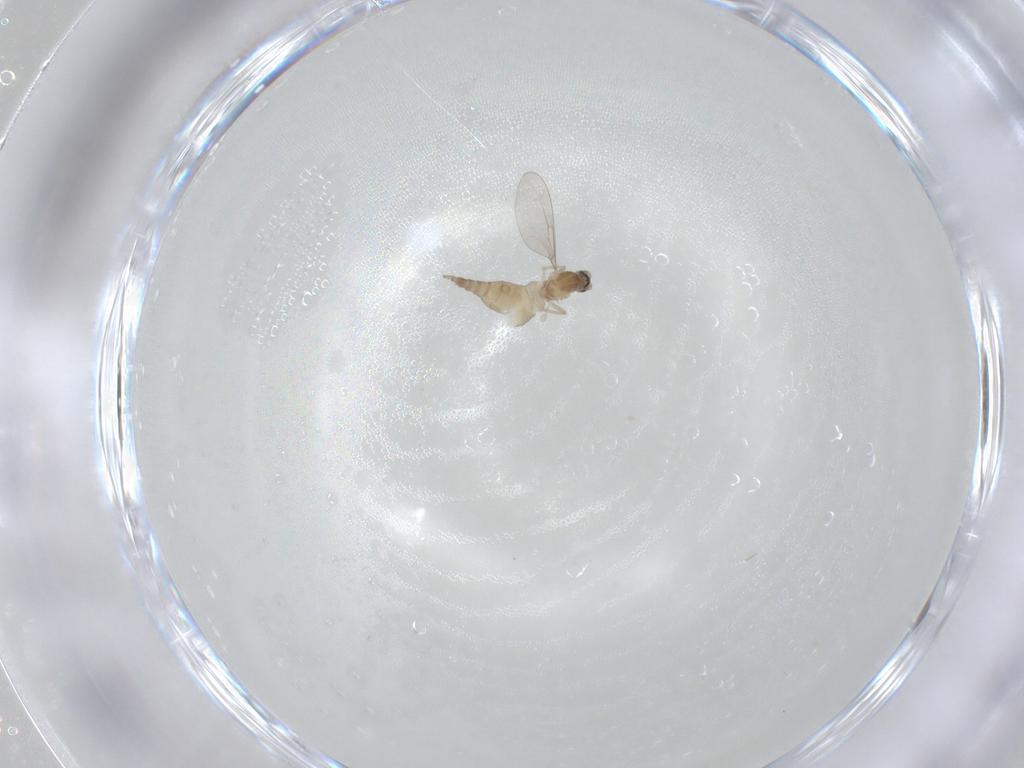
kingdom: Animalia
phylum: Arthropoda
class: Insecta
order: Diptera
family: Cecidomyiidae
